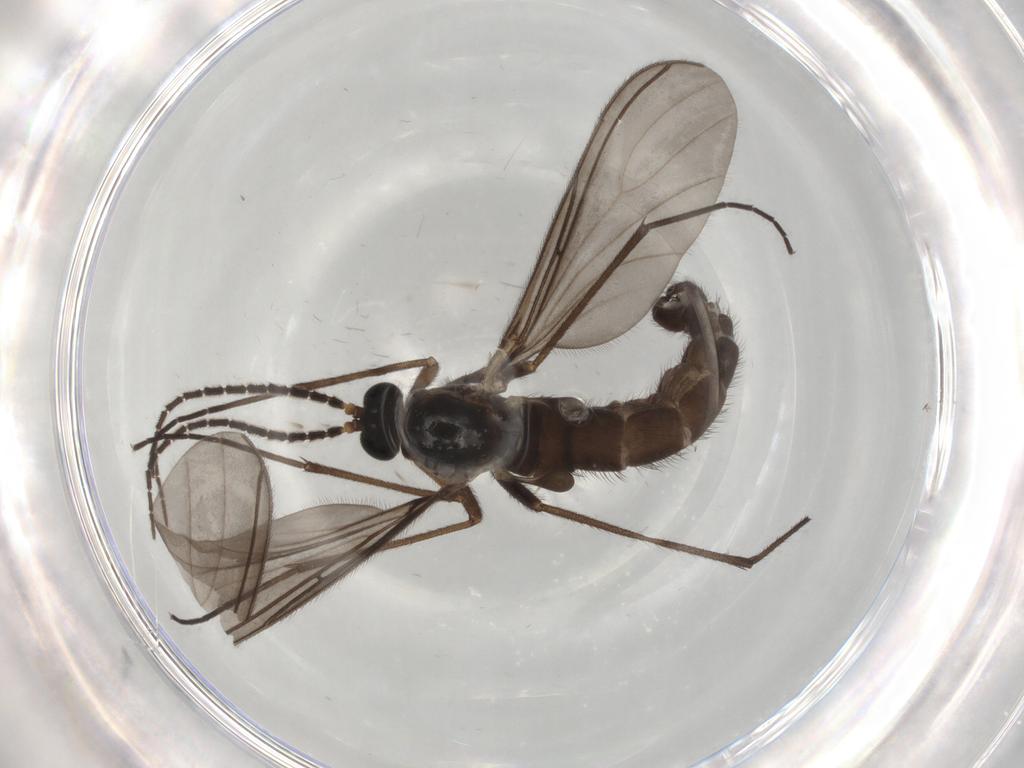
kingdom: Animalia
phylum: Arthropoda
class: Insecta
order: Diptera
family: Sciaridae
